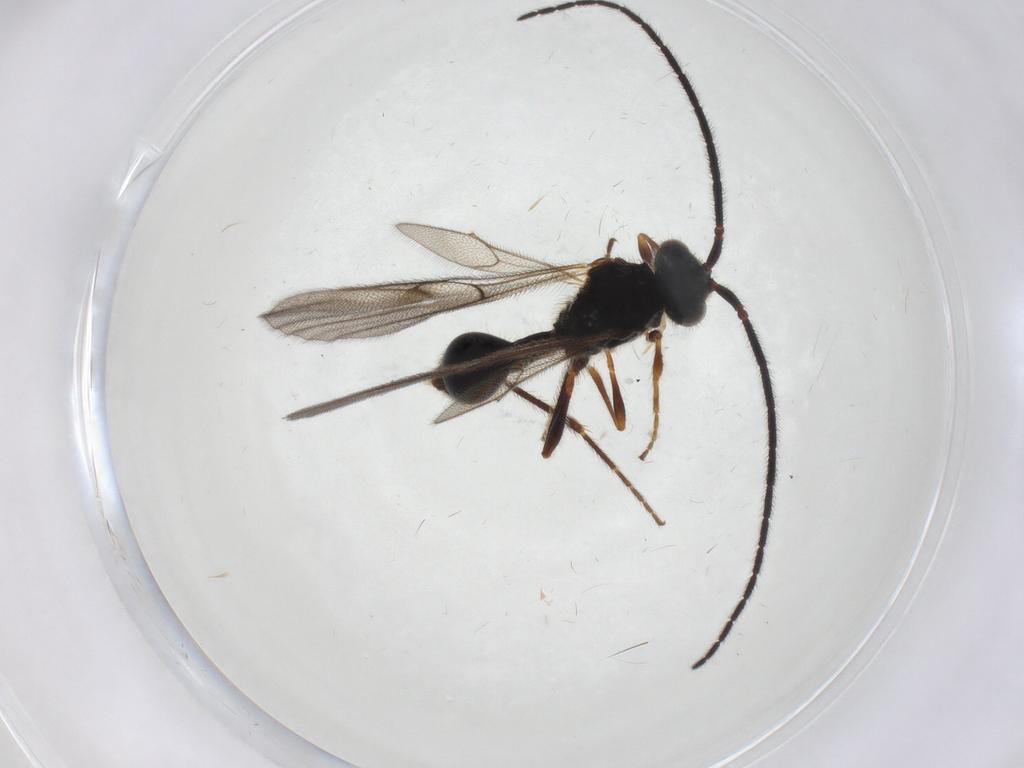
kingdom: Animalia
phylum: Arthropoda
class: Insecta
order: Hymenoptera
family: Diapriidae
